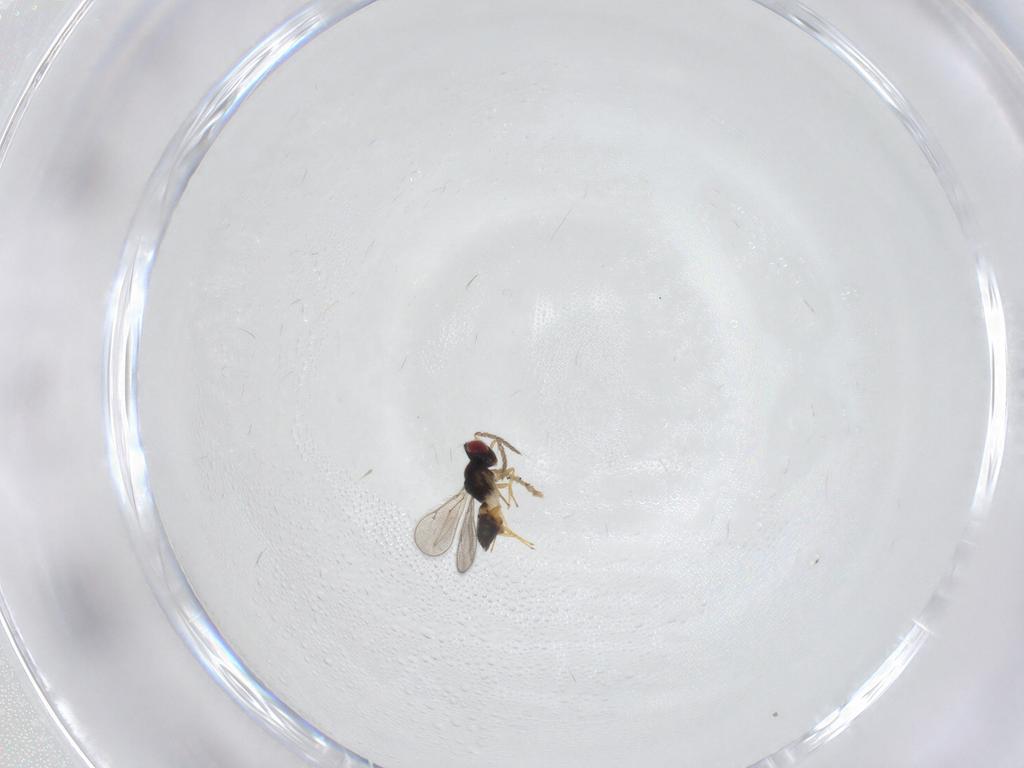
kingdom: Animalia
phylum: Arthropoda
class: Insecta
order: Hymenoptera
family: Eulophidae
